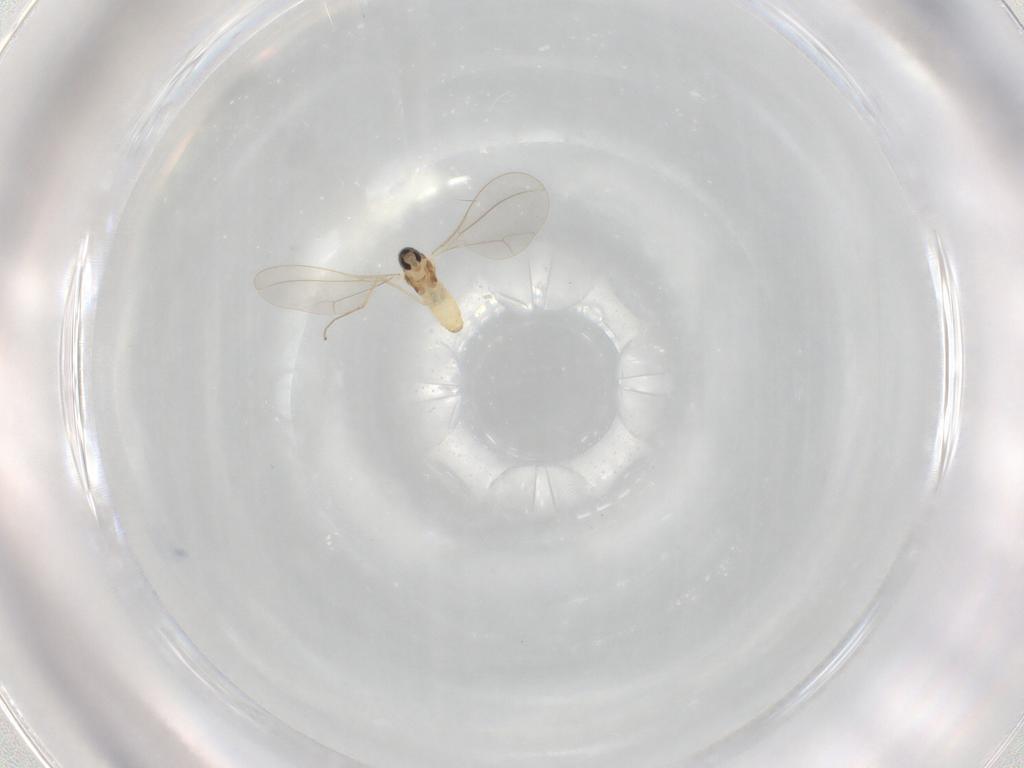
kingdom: Animalia
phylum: Arthropoda
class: Insecta
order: Diptera
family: Cecidomyiidae
